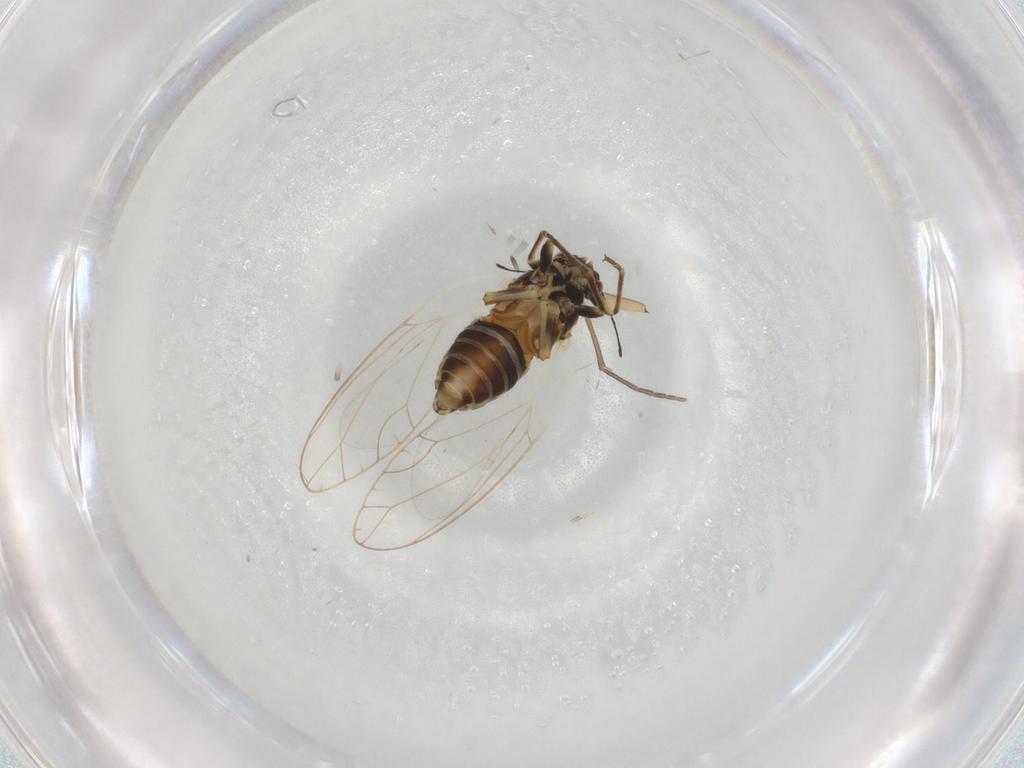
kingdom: Animalia
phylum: Arthropoda
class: Insecta
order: Hemiptera
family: Cicadellidae
